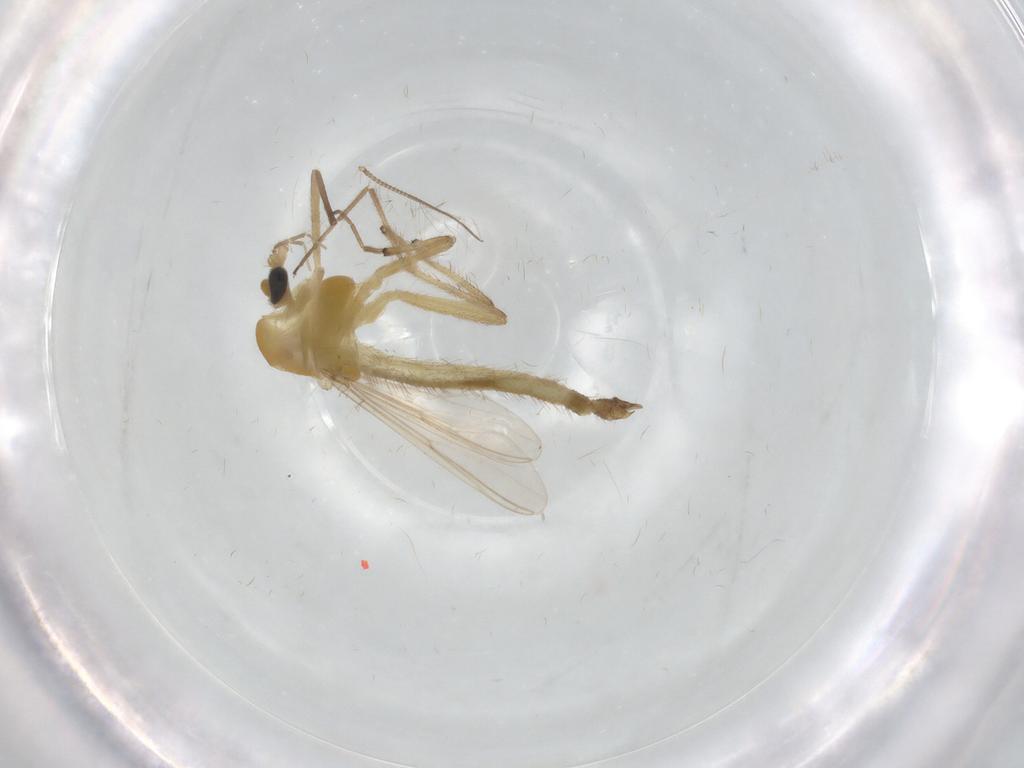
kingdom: Animalia
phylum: Arthropoda
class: Insecta
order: Diptera
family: Chironomidae
